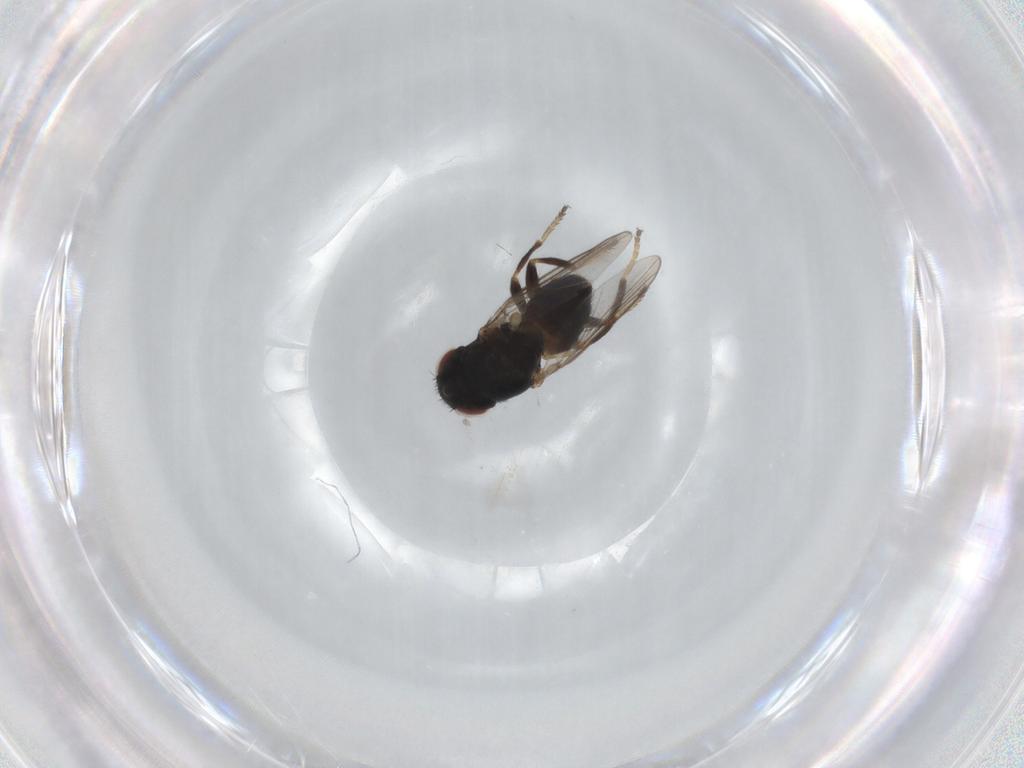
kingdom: Animalia
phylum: Arthropoda
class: Insecta
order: Diptera
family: Chloropidae
